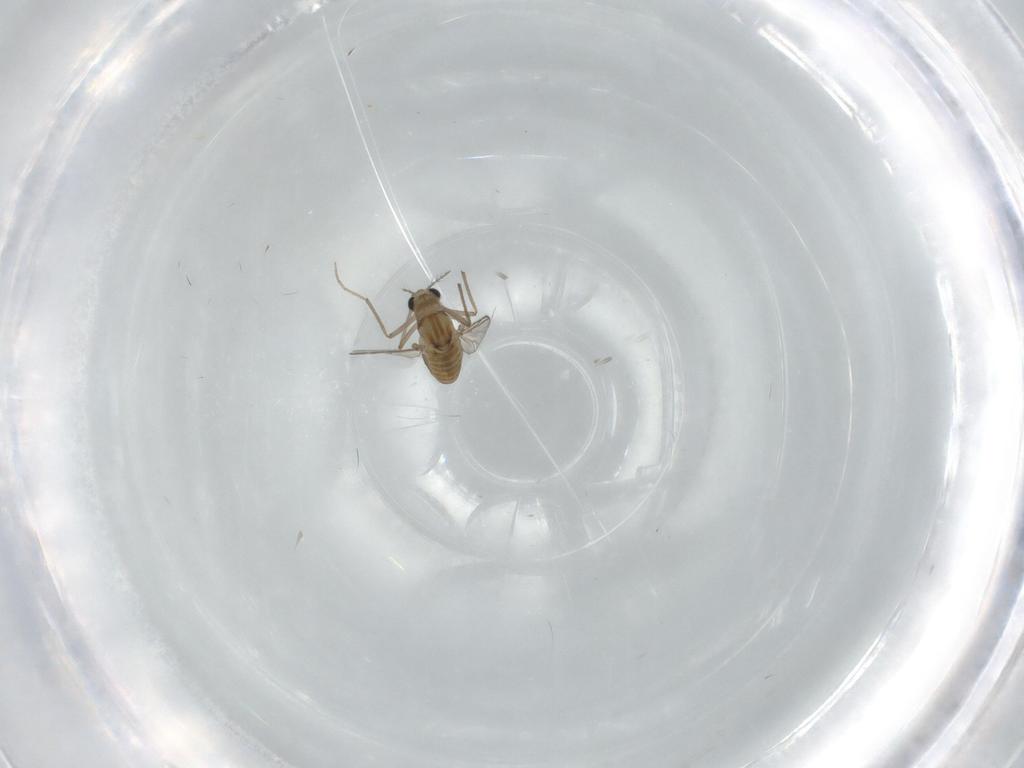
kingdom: Animalia
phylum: Arthropoda
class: Insecta
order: Diptera
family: Chironomidae
